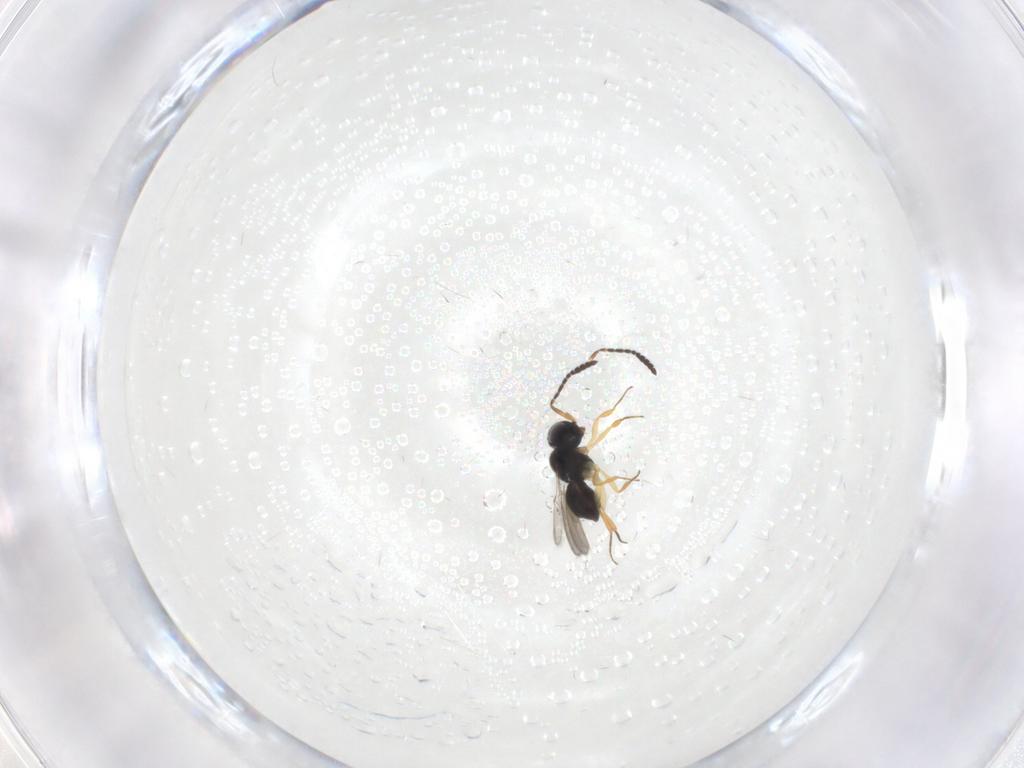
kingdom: Animalia
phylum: Arthropoda
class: Insecta
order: Hymenoptera
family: Scelionidae
